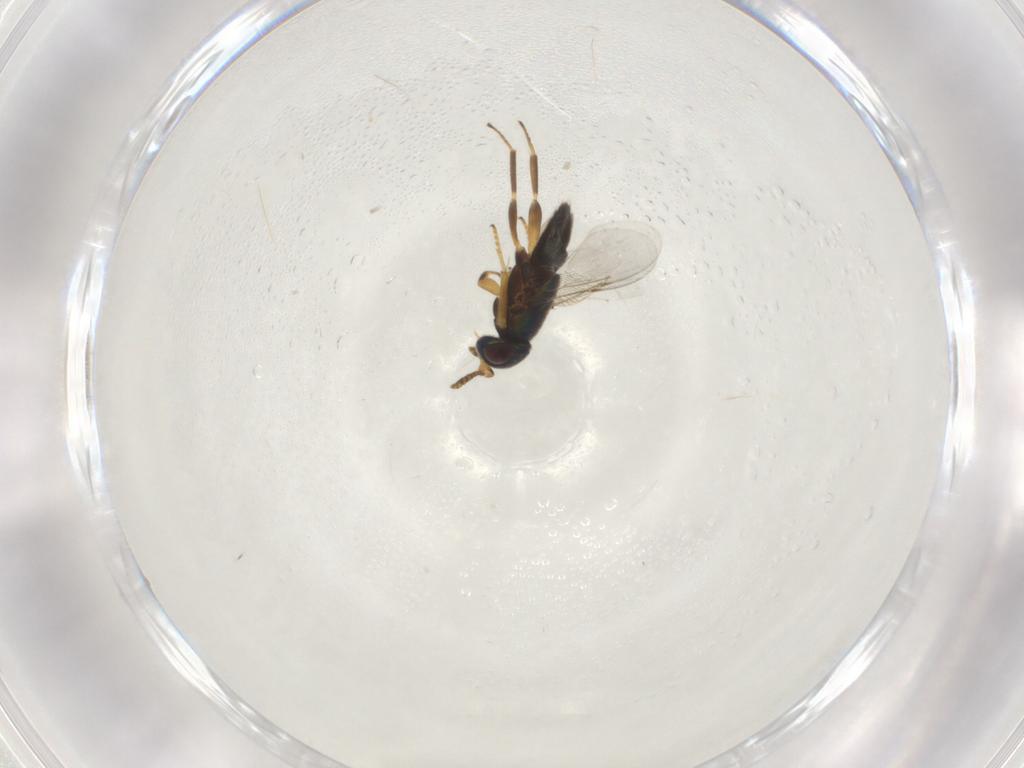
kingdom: Animalia
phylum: Arthropoda
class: Insecta
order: Hymenoptera
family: Encyrtidae
